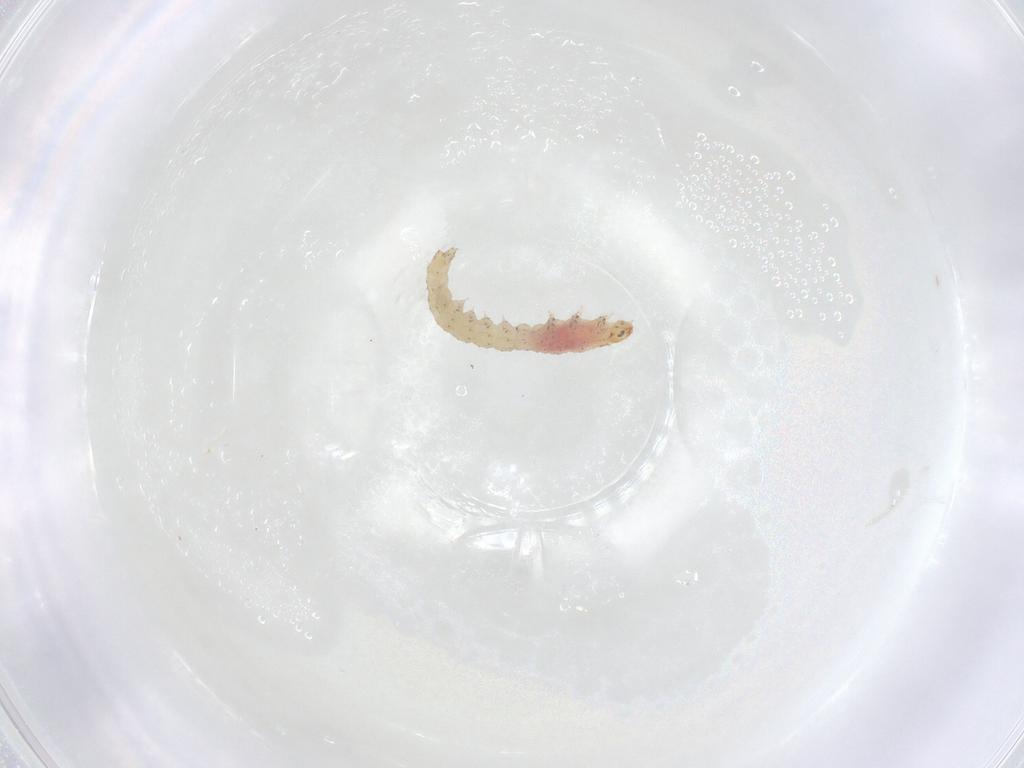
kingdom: Animalia
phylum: Arthropoda
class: Insecta
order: Lepidoptera
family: Gelechiidae
